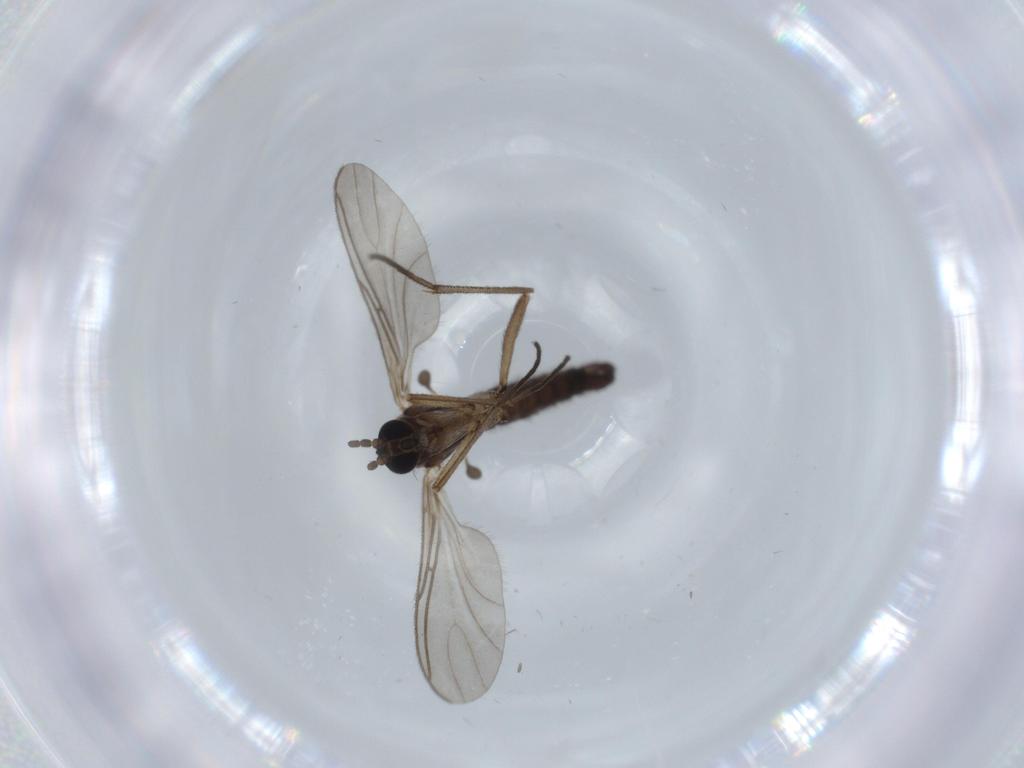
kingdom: Animalia
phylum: Arthropoda
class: Insecta
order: Diptera
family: Sciaridae
